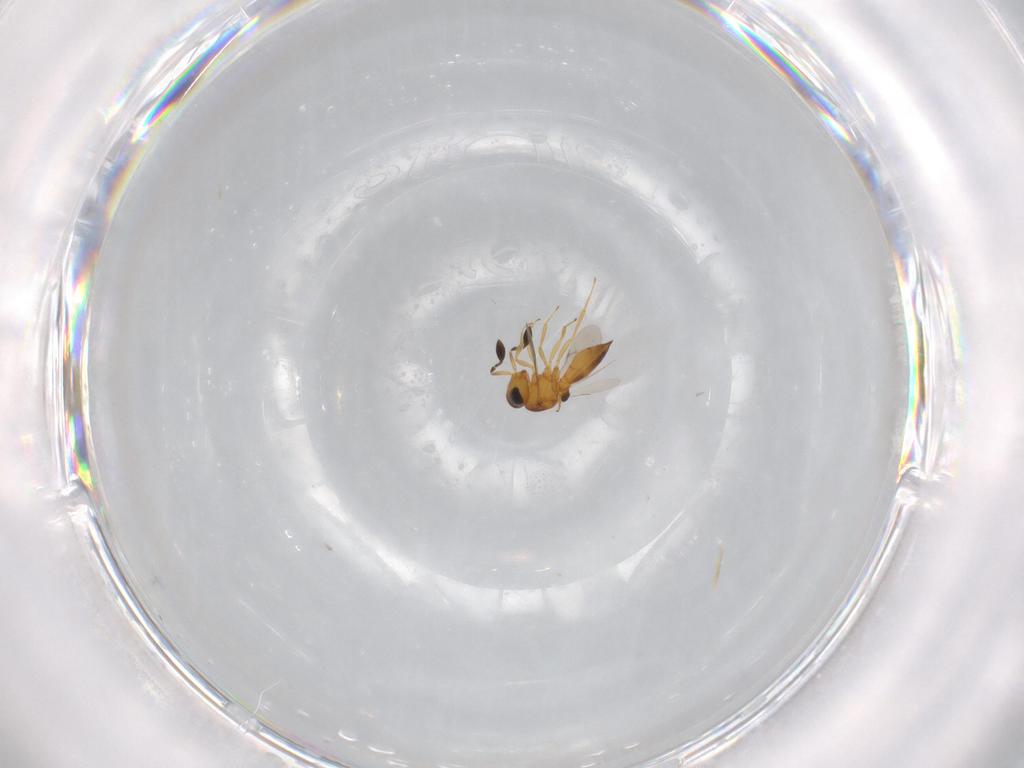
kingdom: Animalia
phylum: Arthropoda
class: Insecta
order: Hymenoptera
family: Scelionidae
